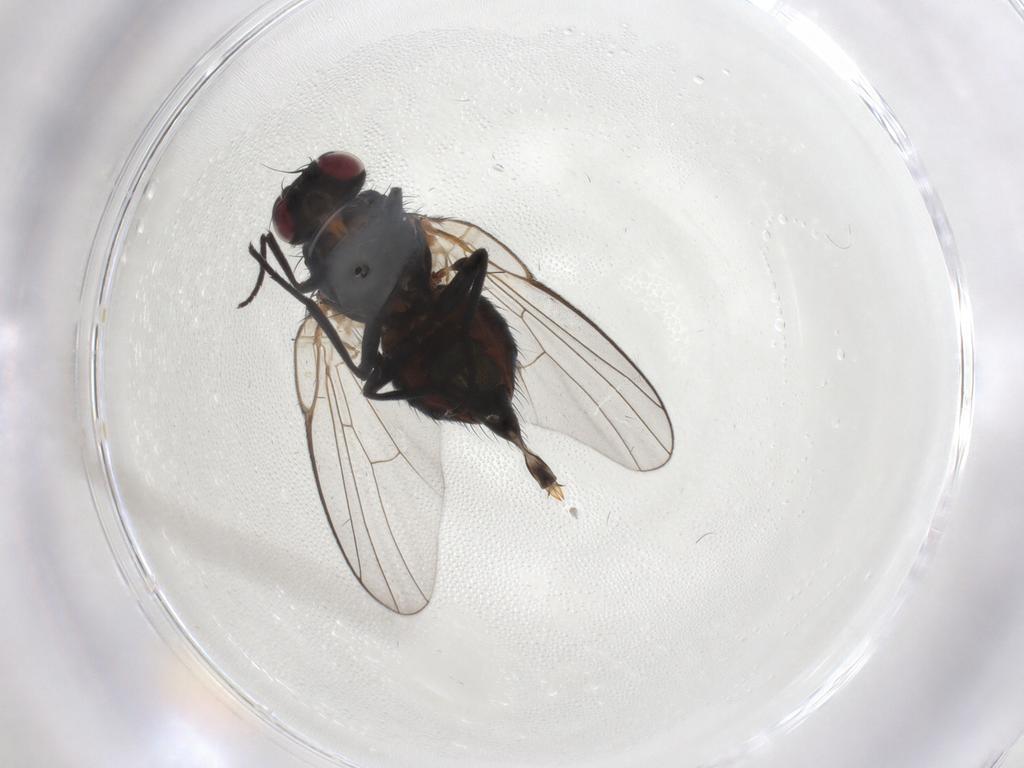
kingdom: Animalia
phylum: Arthropoda
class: Insecta
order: Diptera
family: Sphaeroceridae
